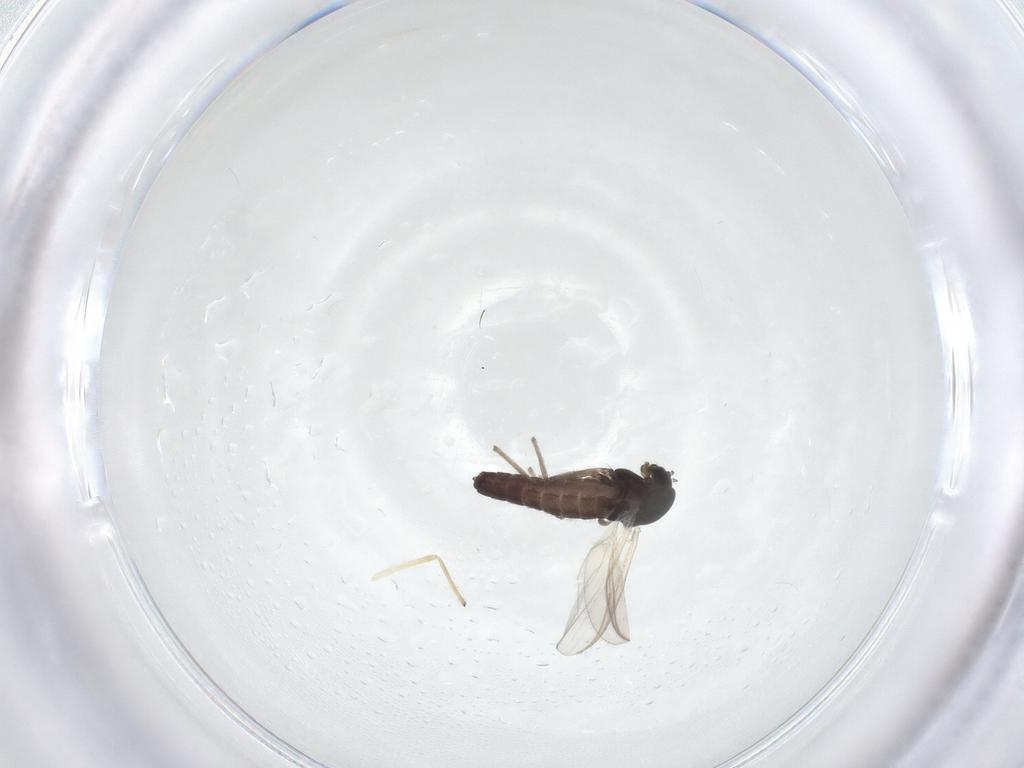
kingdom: Animalia
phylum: Arthropoda
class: Insecta
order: Diptera
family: Chironomidae
